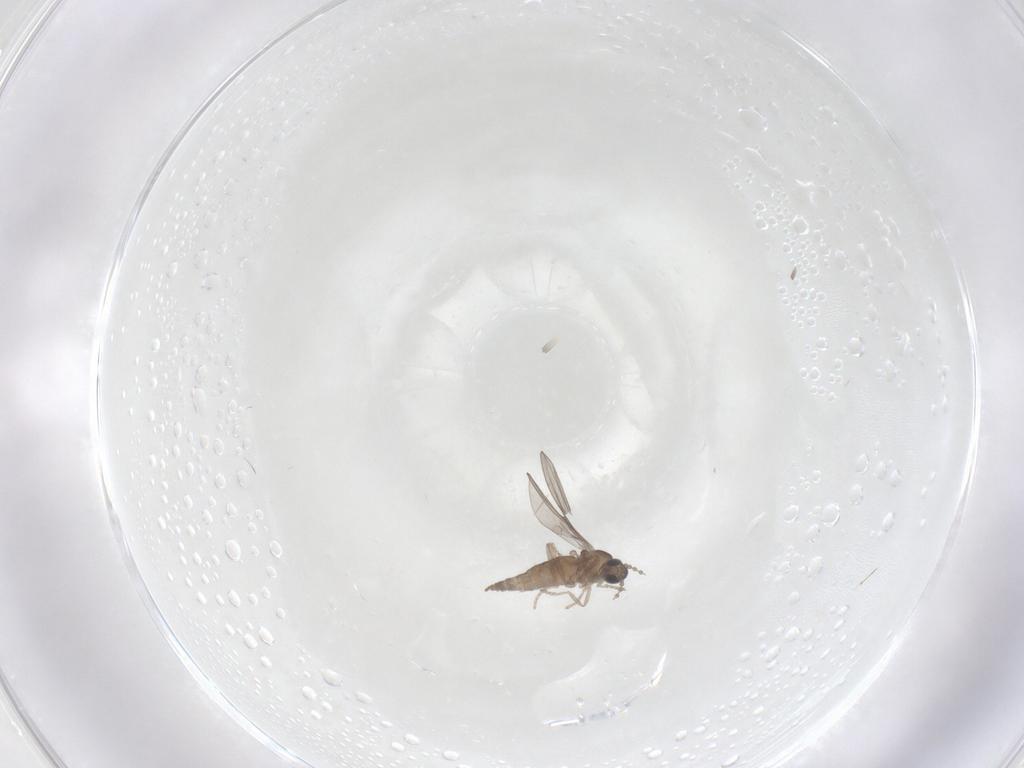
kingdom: Animalia
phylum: Arthropoda
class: Insecta
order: Diptera
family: Cecidomyiidae
